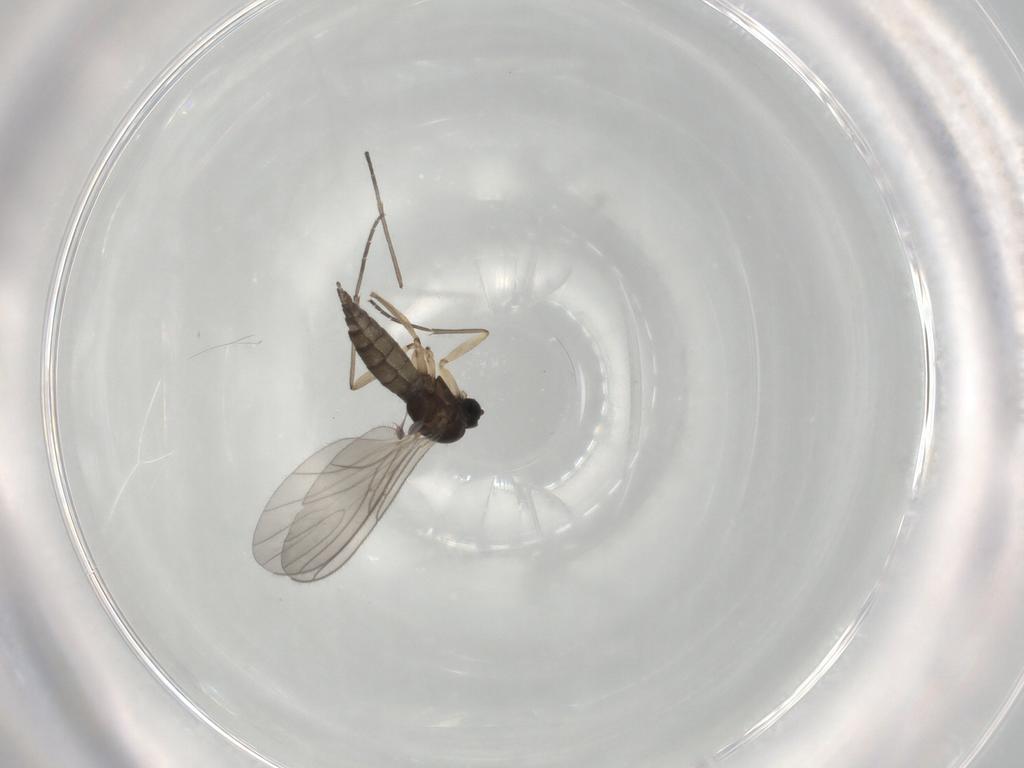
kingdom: Animalia
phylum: Arthropoda
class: Insecta
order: Diptera
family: Sciaridae
